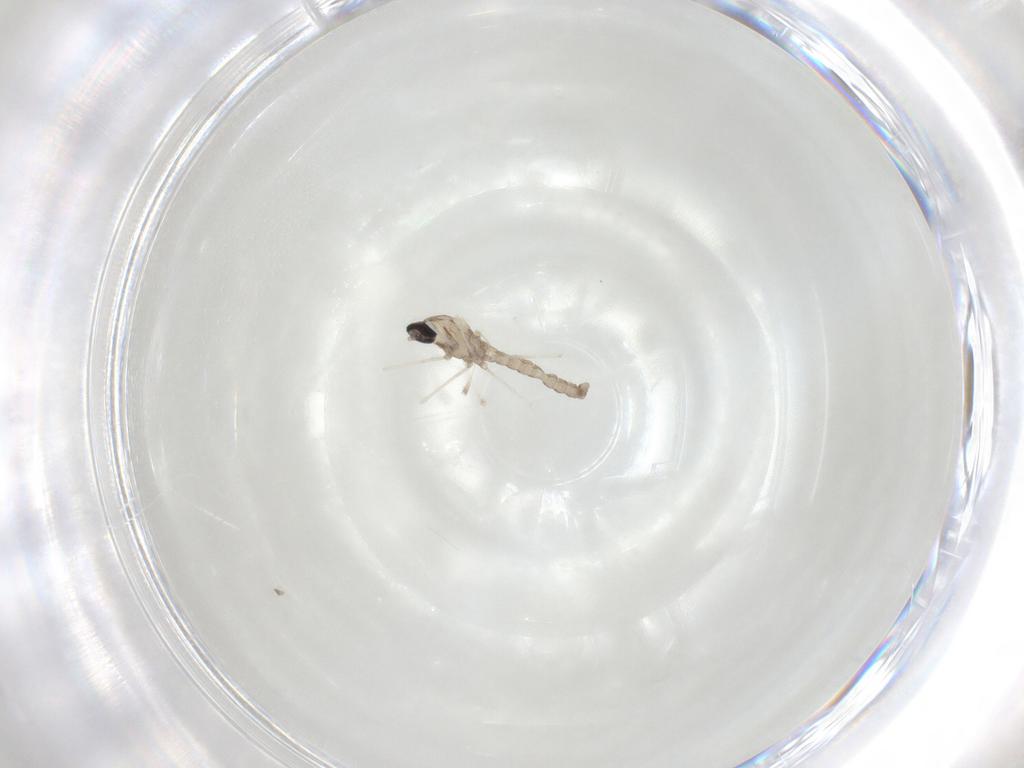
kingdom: Animalia
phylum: Arthropoda
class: Insecta
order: Diptera
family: Cecidomyiidae
